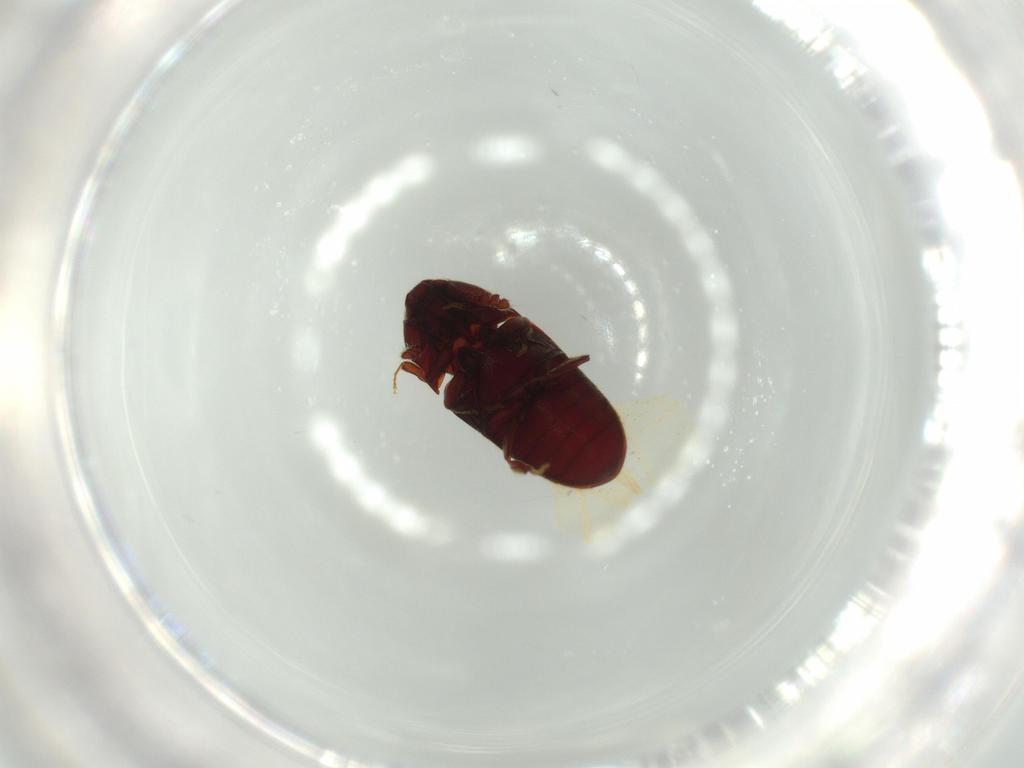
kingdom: Animalia
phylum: Arthropoda
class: Insecta
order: Coleoptera
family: Throscidae
